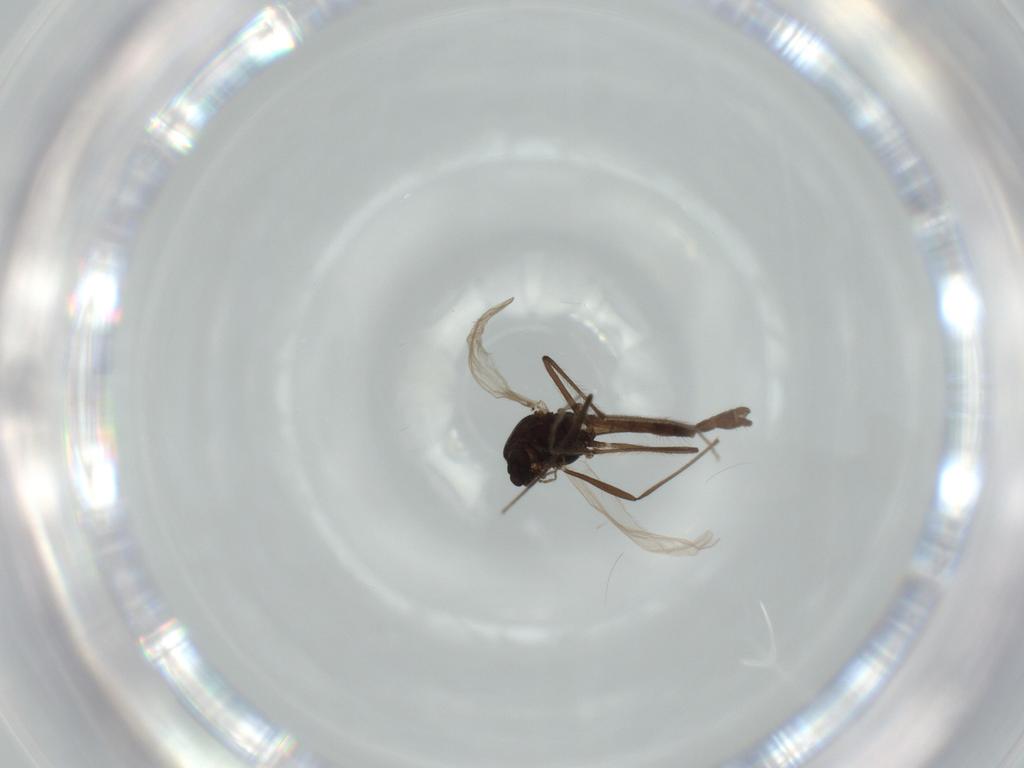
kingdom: Animalia
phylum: Arthropoda
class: Insecta
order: Diptera
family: Chironomidae
